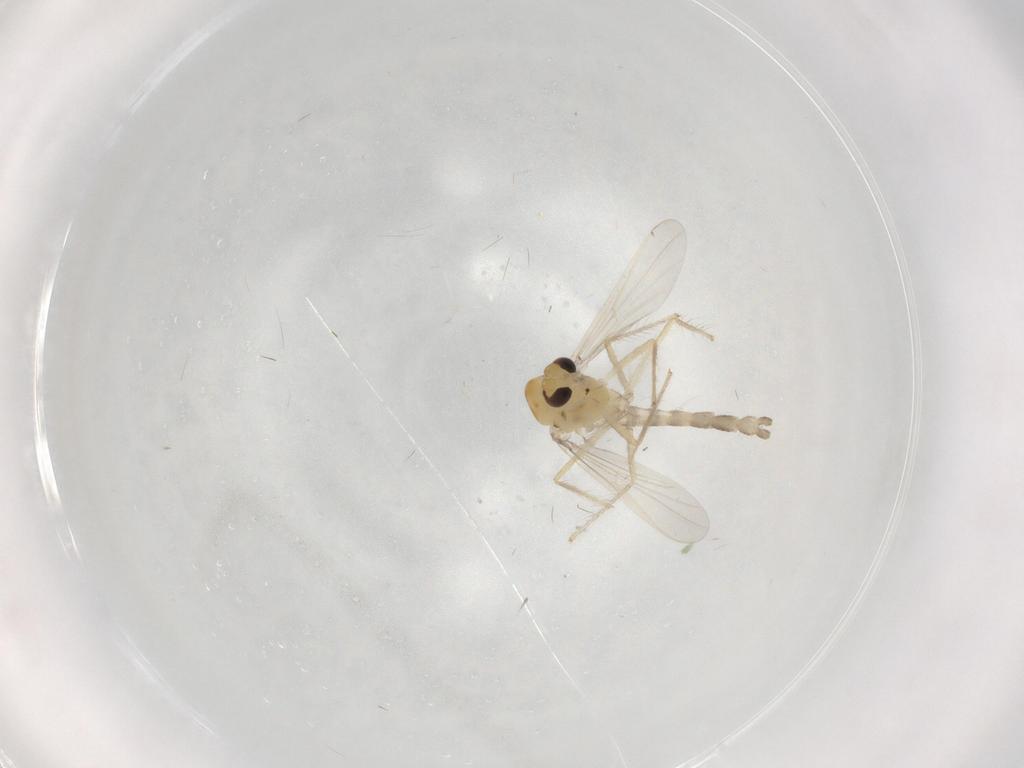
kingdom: Animalia
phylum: Arthropoda
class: Insecta
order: Diptera
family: Chironomidae
